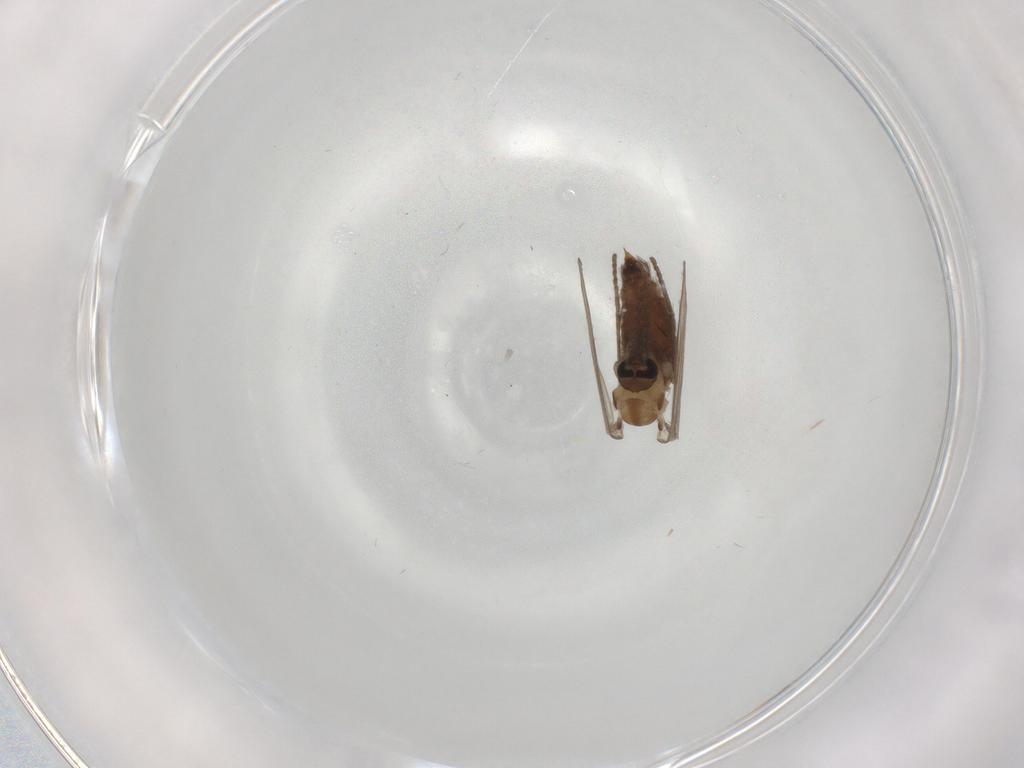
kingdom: Animalia
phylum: Arthropoda
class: Insecta
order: Diptera
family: Psychodidae
